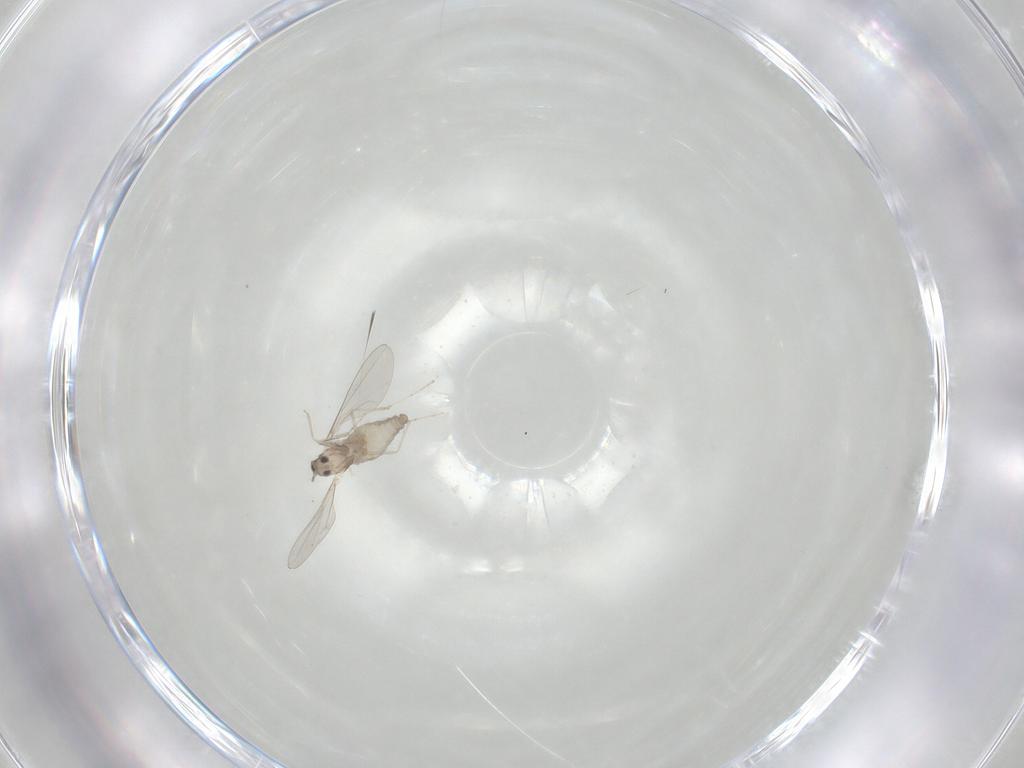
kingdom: Animalia
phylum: Arthropoda
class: Insecta
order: Diptera
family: Cecidomyiidae
